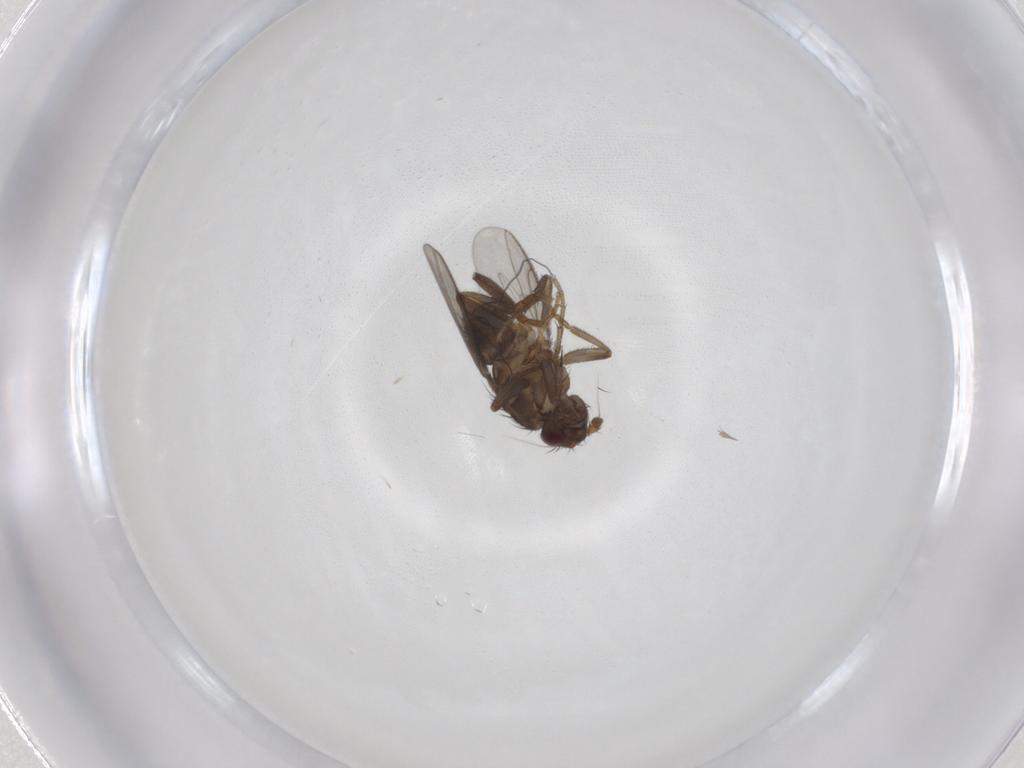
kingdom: Animalia
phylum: Arthropoda
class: Insecta
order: Diptera
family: Sphaeroceridae
